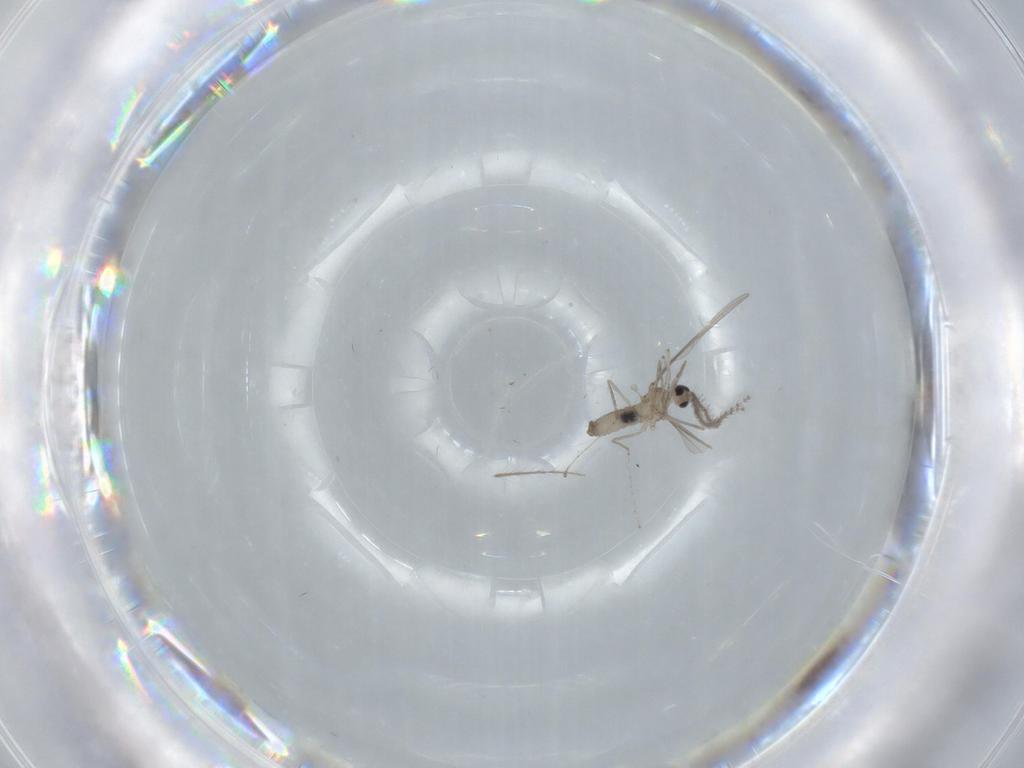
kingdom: Animalia
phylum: Arthropoda
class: Insecta
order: Diptera
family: Cecidomyiidae
